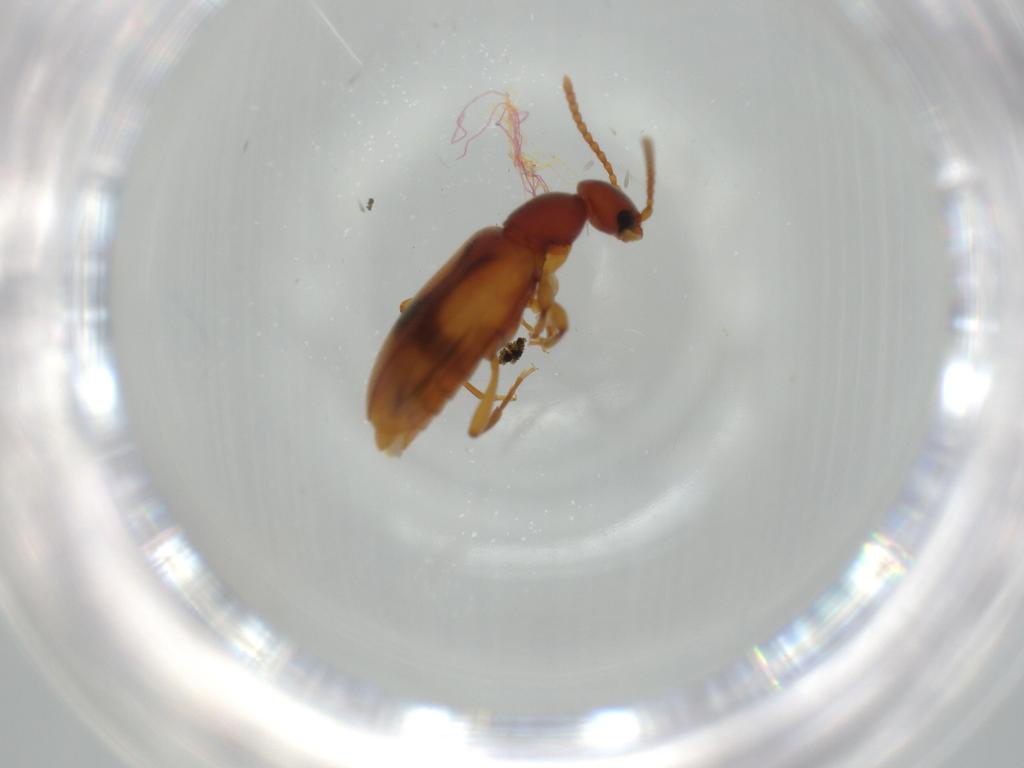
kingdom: Animalia
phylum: Arthropoda
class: Insecta
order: Coleoptera
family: Anthicidae
